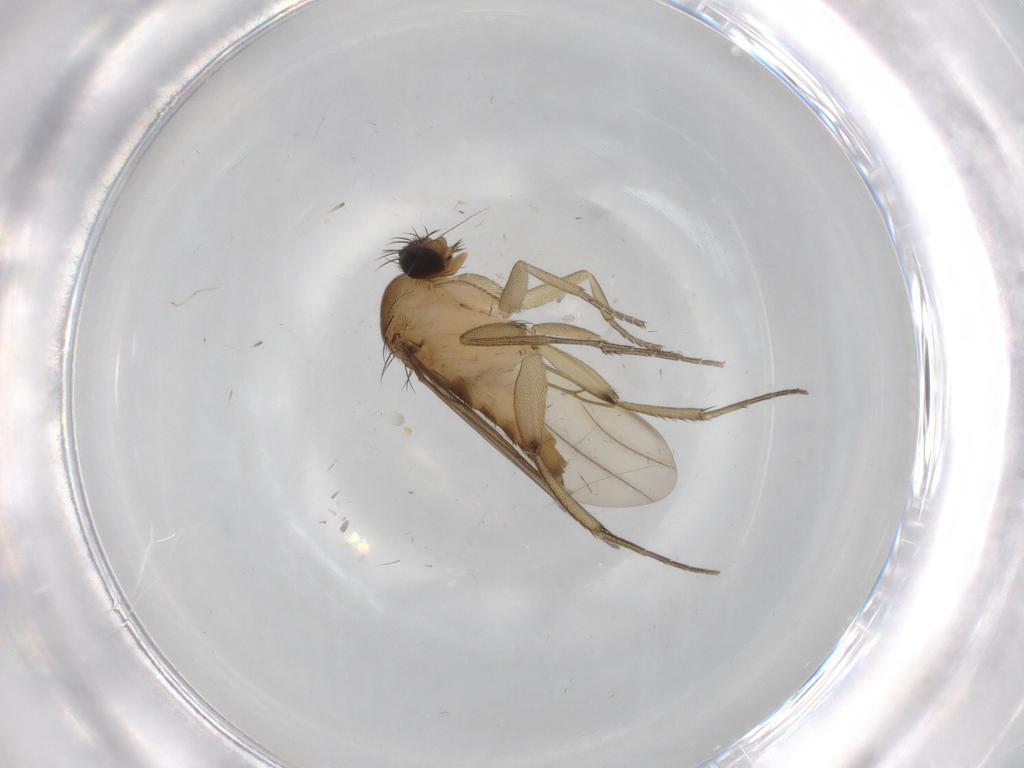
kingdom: Animalia
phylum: Arthropoda
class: Insecta
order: Diptera
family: Phoridae
